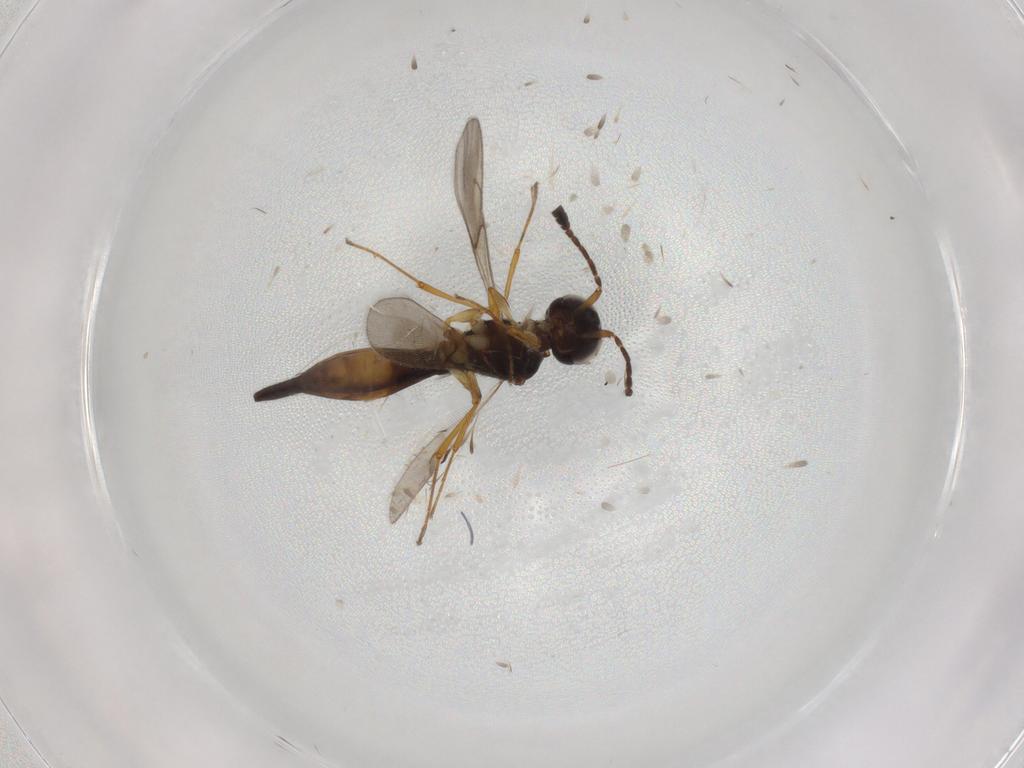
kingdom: Animalia
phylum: Arthropoda
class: Insecta
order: Hymenoptera
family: Scelionidae
